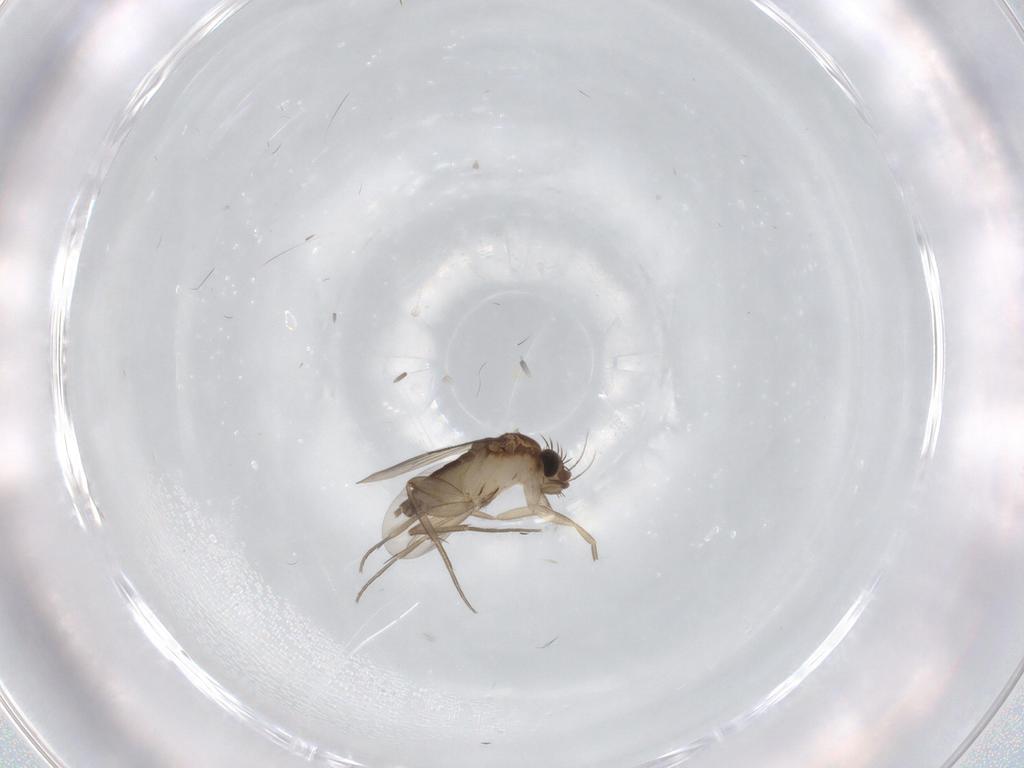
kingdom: Animalia
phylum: Arthropoda
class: Insecta
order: Diptera
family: Phoridae
